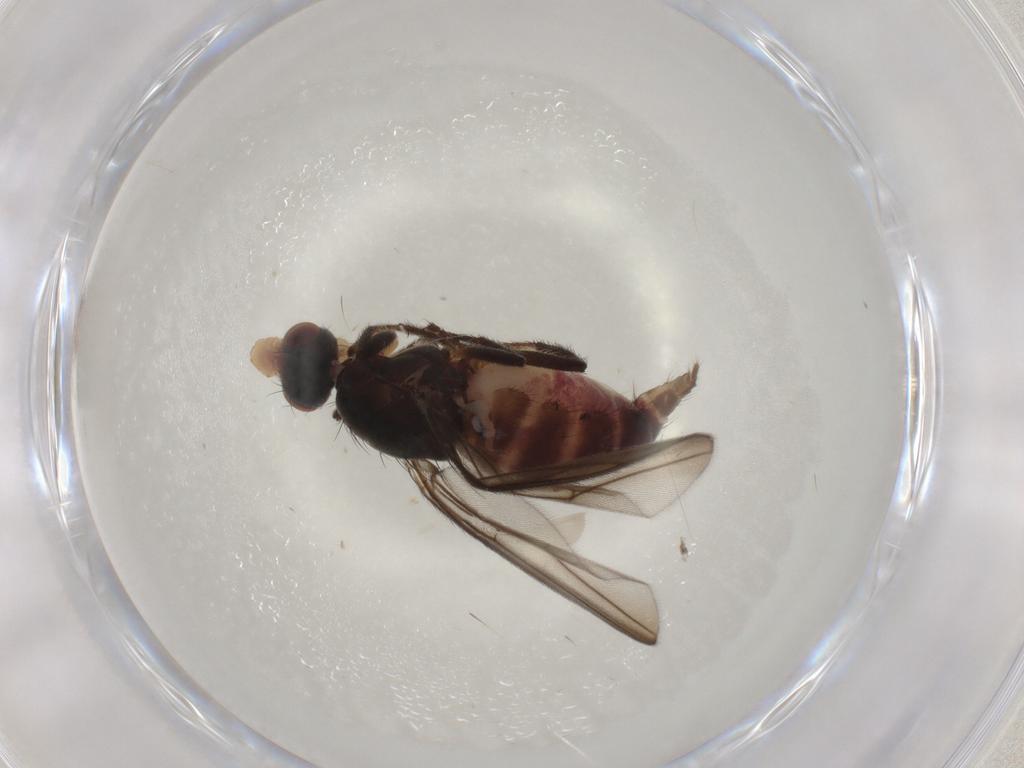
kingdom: Animalia
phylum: Arthropoda
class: Insecta
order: Diptera
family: Chloropidae
